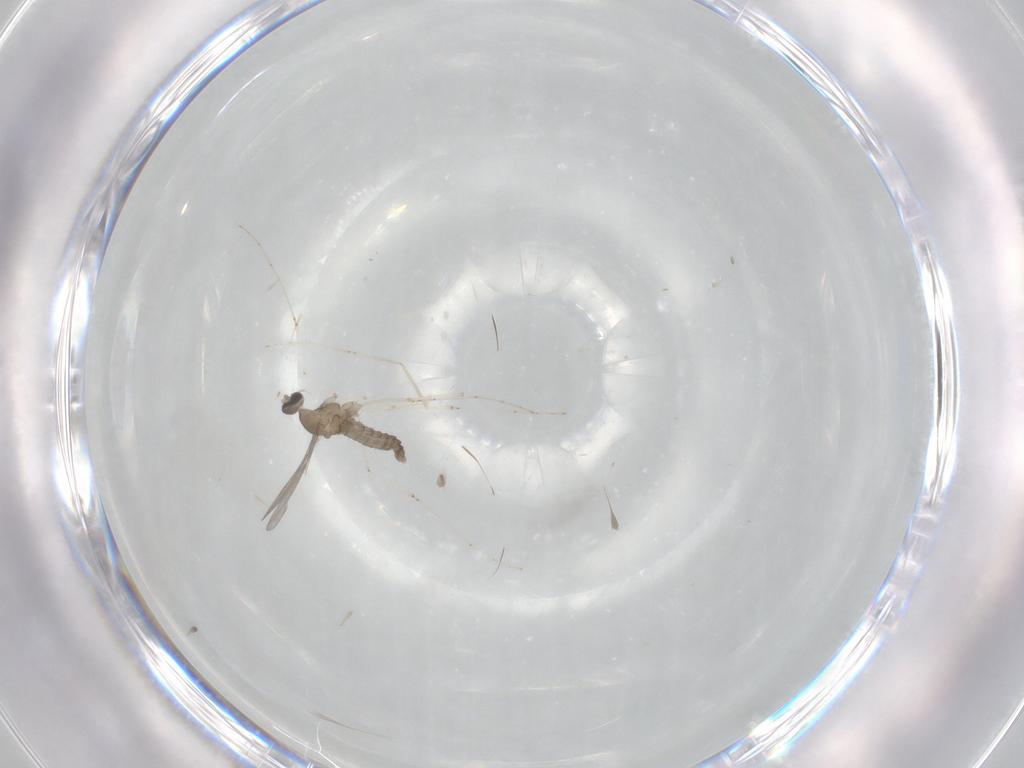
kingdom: Animalia
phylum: Arthropoda
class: Insecta
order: Diptera
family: Cecidomyiidae
